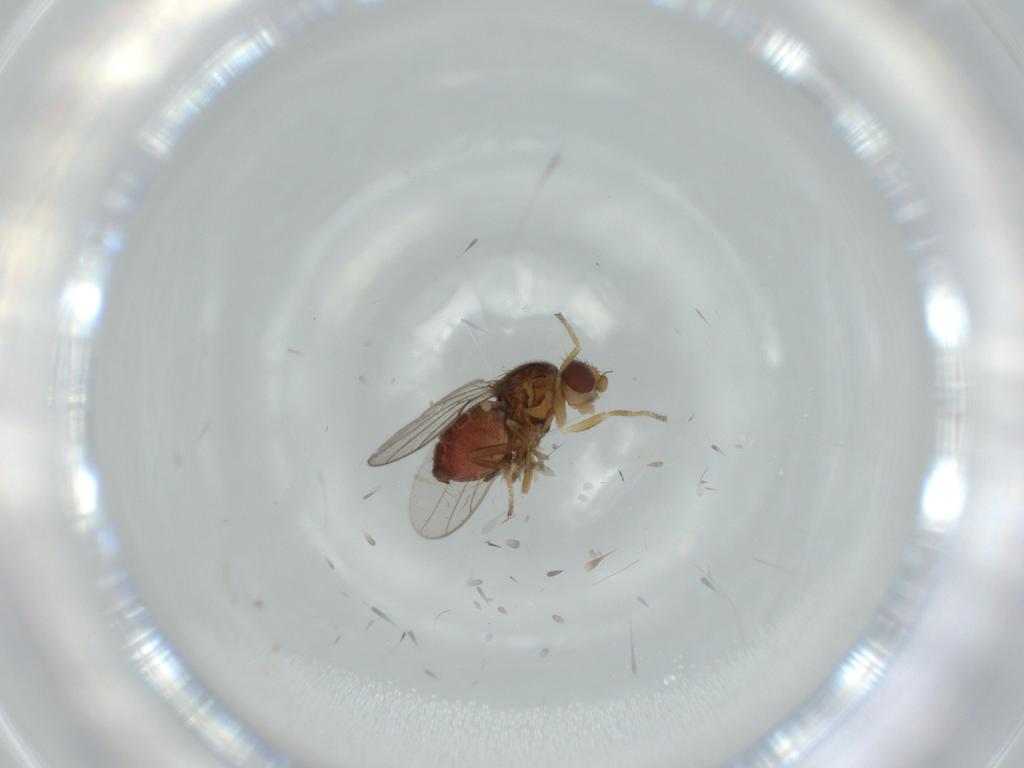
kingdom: Animalia
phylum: Arthropoda
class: Insecta
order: Diptera
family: Chloropidae
